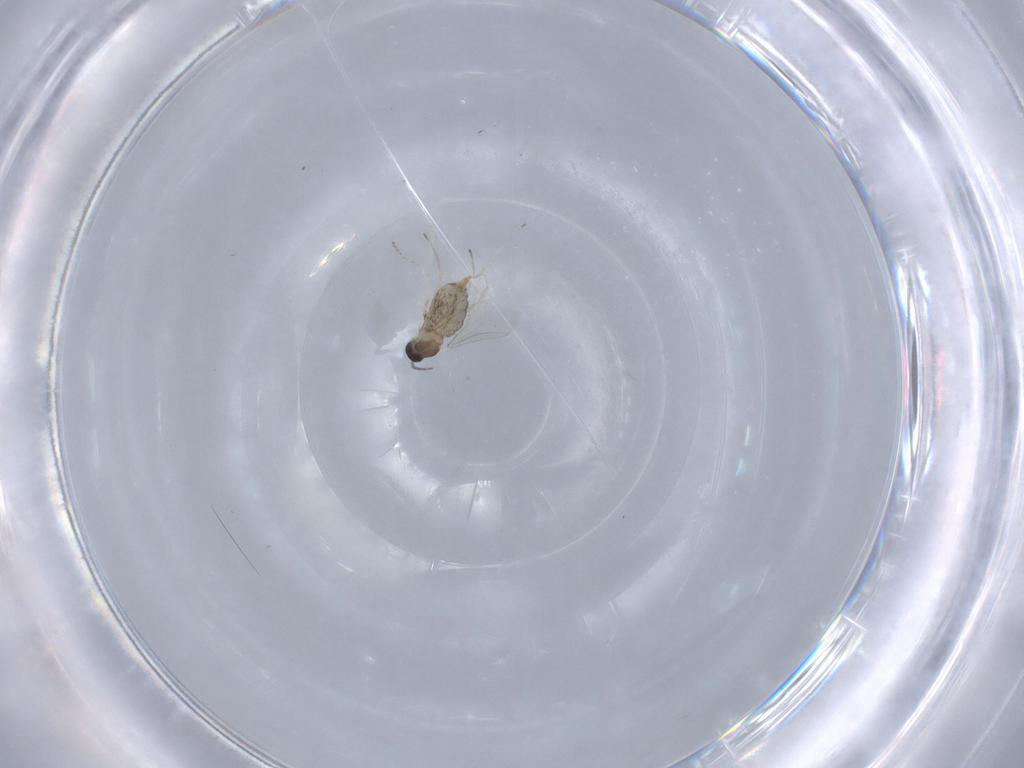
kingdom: Animalia
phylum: Arthropoda
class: Insecta
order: Diptera
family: Cecidomyiidae
